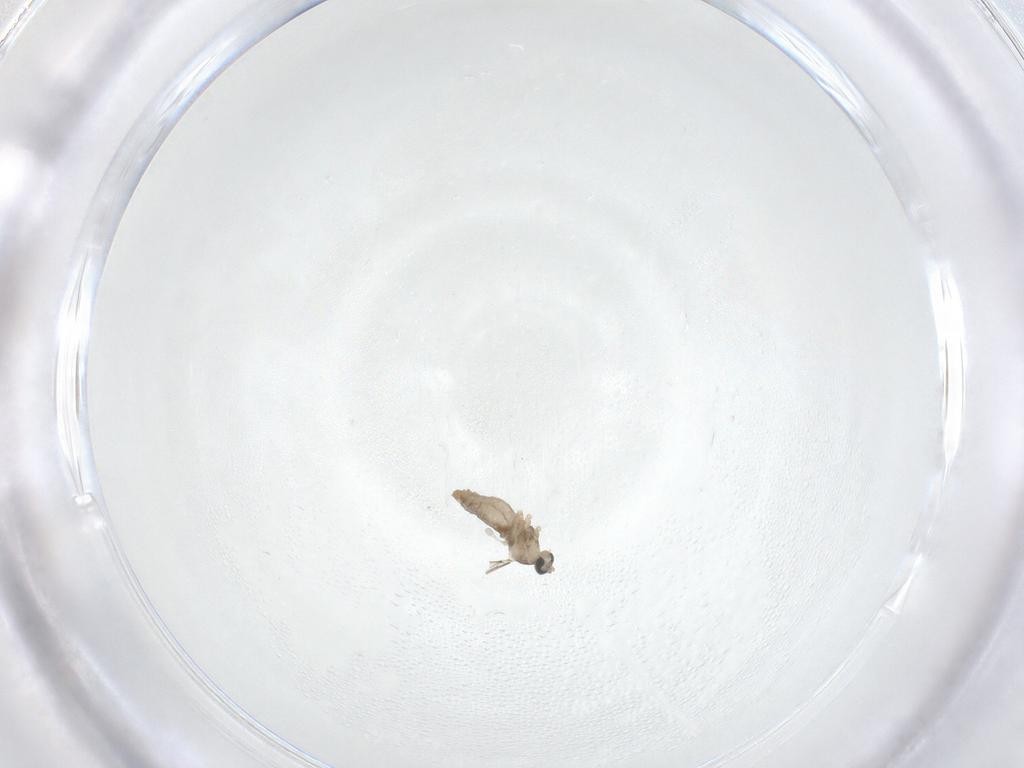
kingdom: Animalia
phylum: Arthropoda
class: Insecta
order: Diptera
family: Cecidomyiidae
